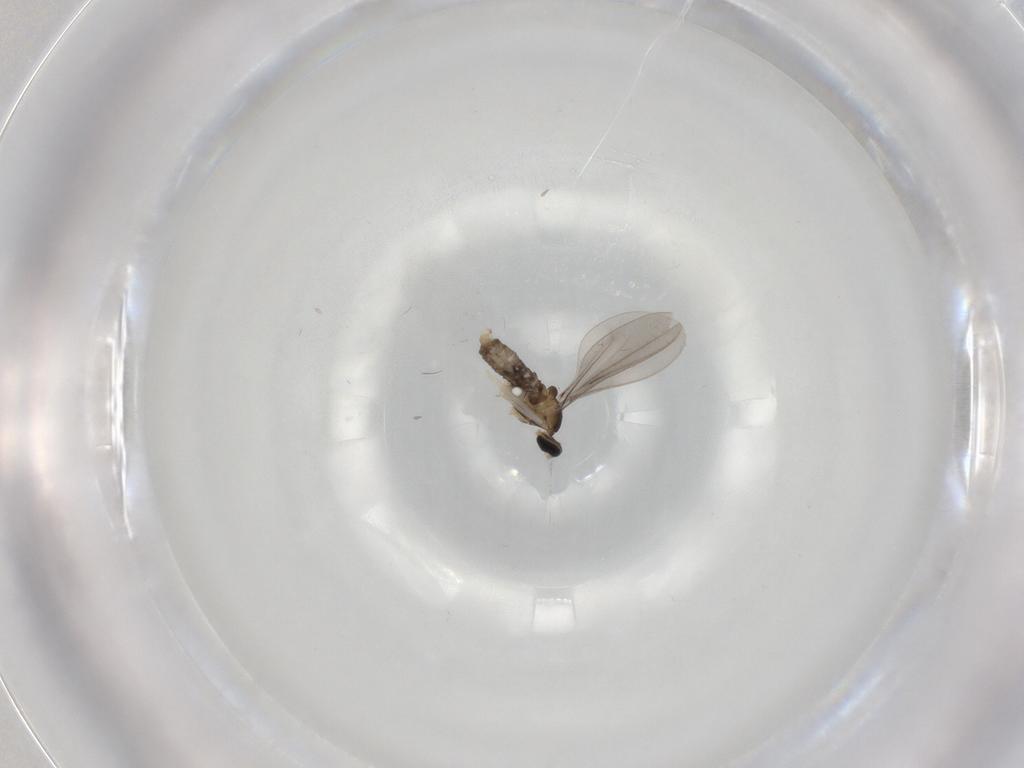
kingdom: Animalia
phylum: Arthropoda
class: Insecta
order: Diptera
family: Cecidomyiidae
